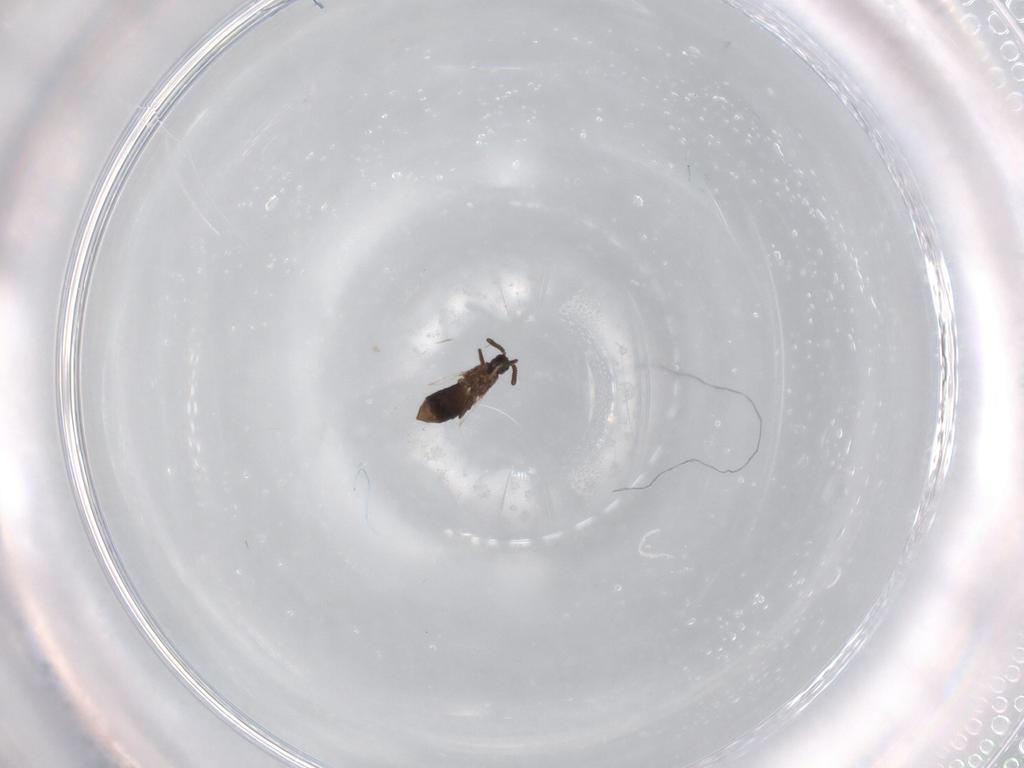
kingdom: Animalia
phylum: Arthropoda
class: Insecta
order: Diptera
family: Scatopsidae
